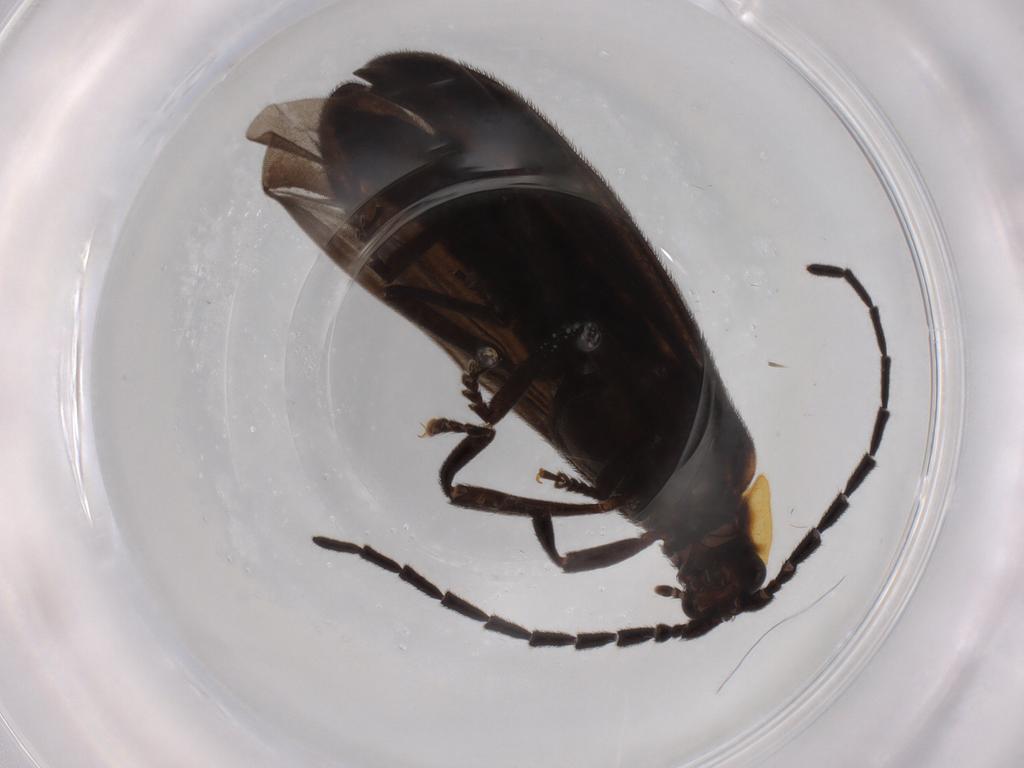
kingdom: Animalia
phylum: Arthropoda
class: Insecta
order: Coleoptera
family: Lycidae
